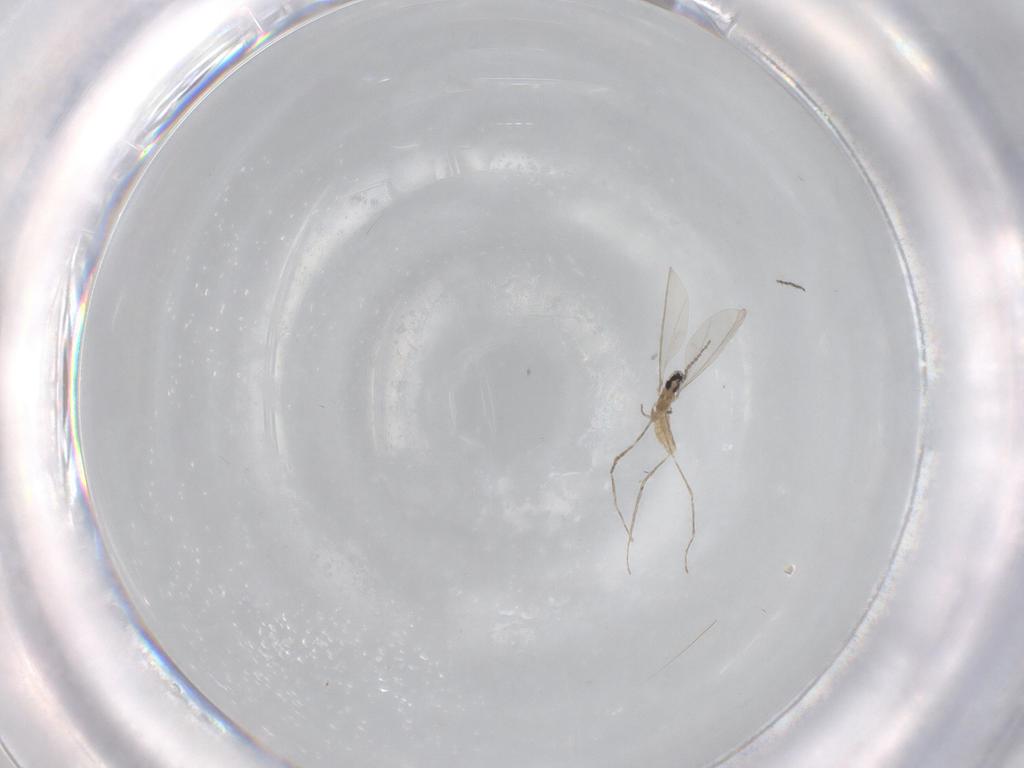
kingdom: Animalia
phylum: Arthropoda
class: Insecta
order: Diptera
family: Cecidomyiidae
